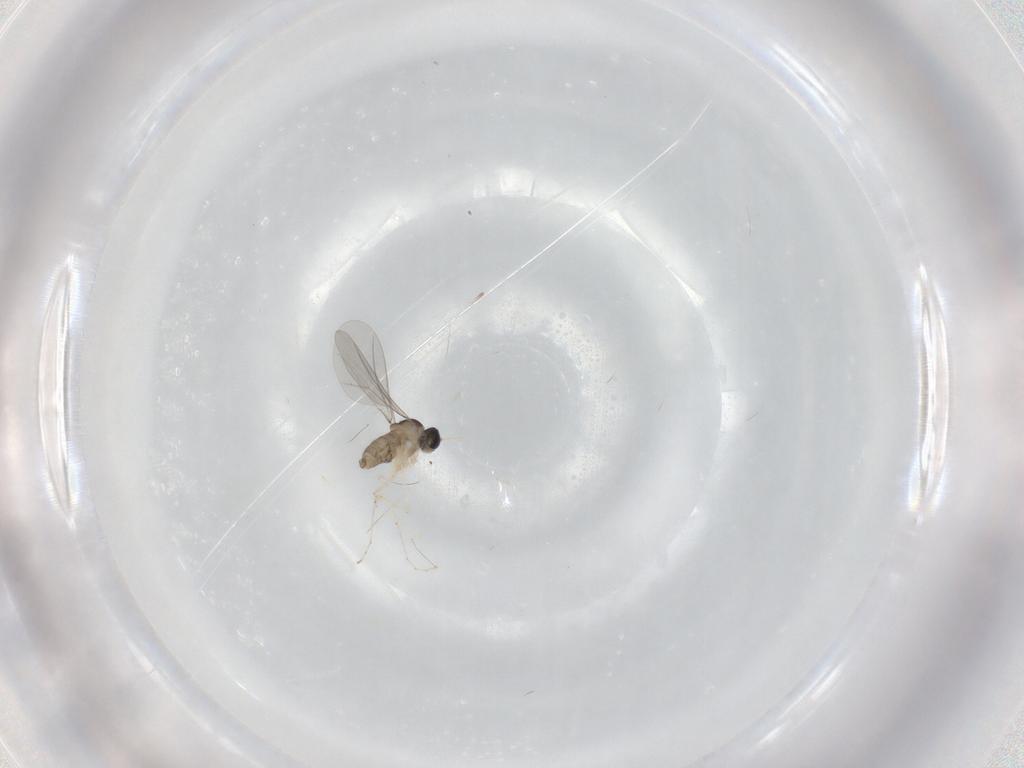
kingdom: Animalia
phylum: Arthropoda
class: Insecta
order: Diptera
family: Cecidomyiidae
